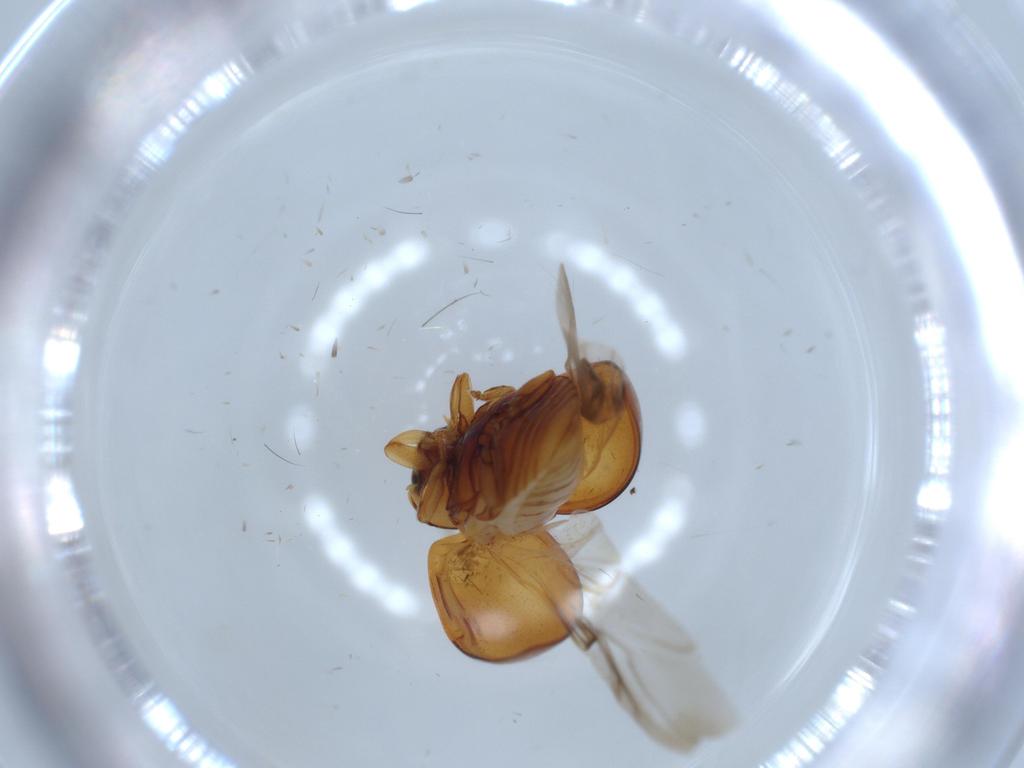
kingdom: Animalia
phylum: Arthropoda
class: Insecta
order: Coleoptera
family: Coccinellidae
